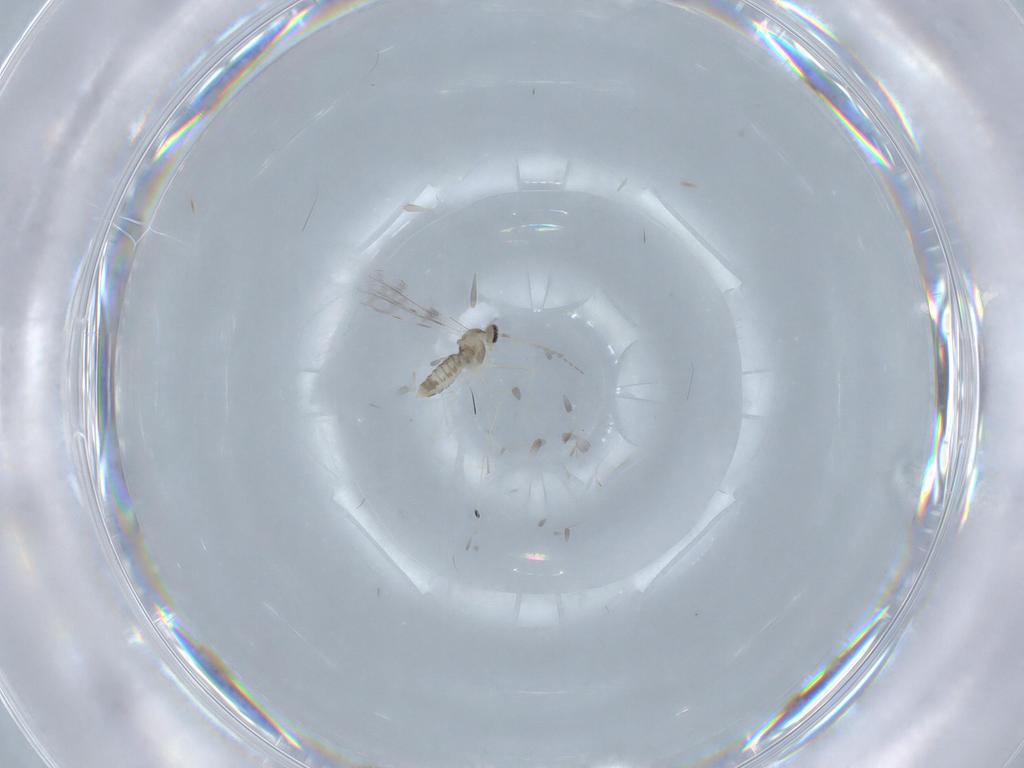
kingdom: Animalia
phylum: Arthropoda
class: Insecta
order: Diptera
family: Cecidomyiidae
